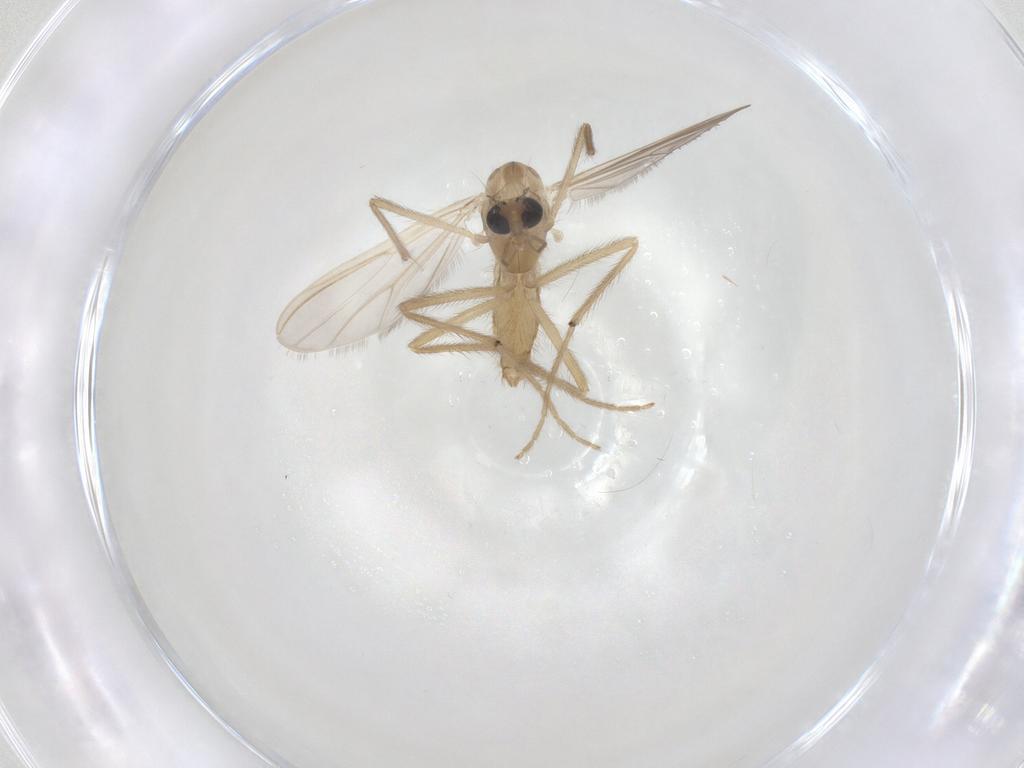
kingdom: Animalia
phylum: Arthropoda
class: Insecta
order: Diptera
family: Chironomidae
